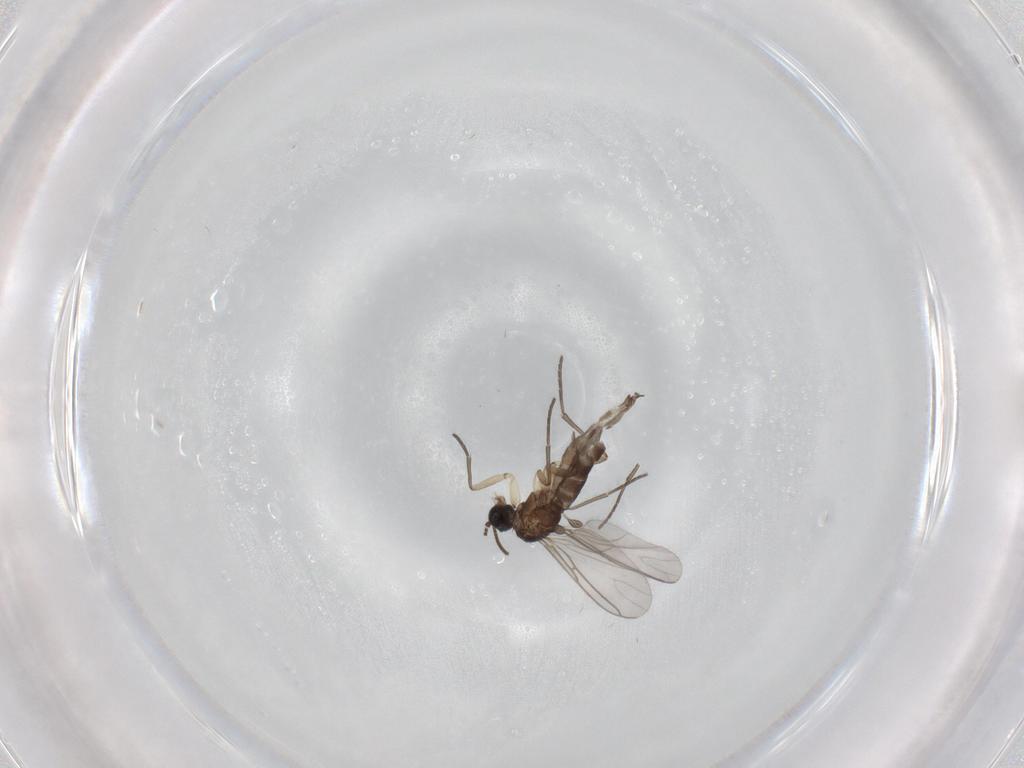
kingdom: Animalia
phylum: Arthropoda
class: Insecta
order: Diptera
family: Sciaridae
